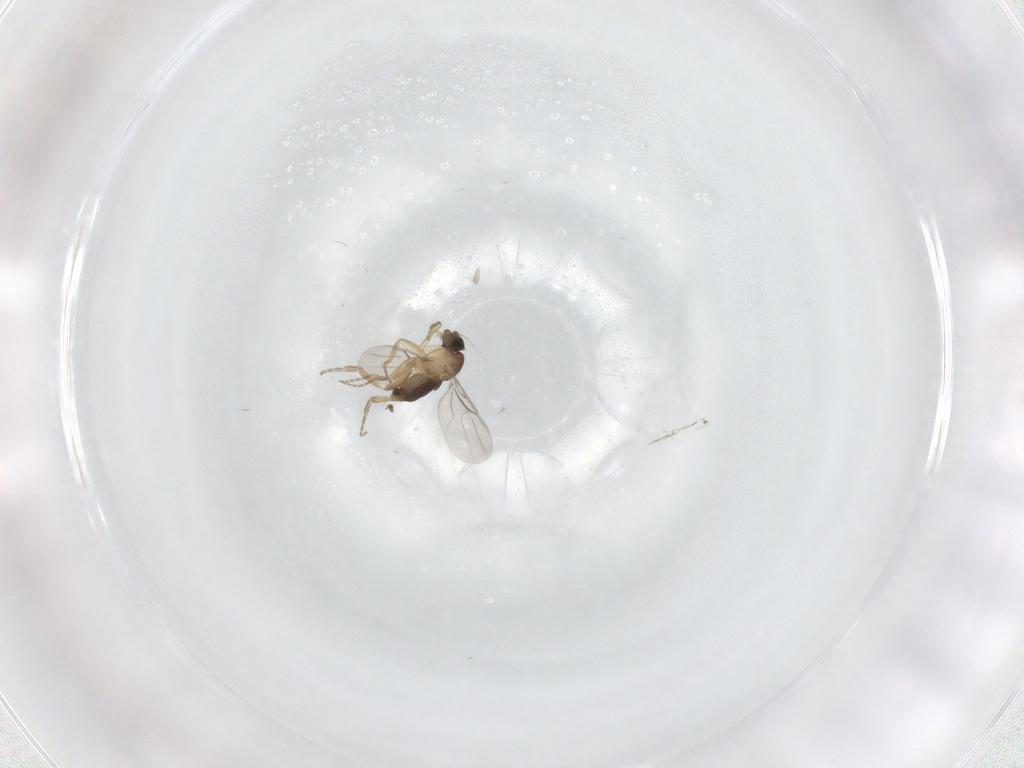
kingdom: Animalia
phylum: Arthropoda
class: Insecta
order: Diptera
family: Phoridae
